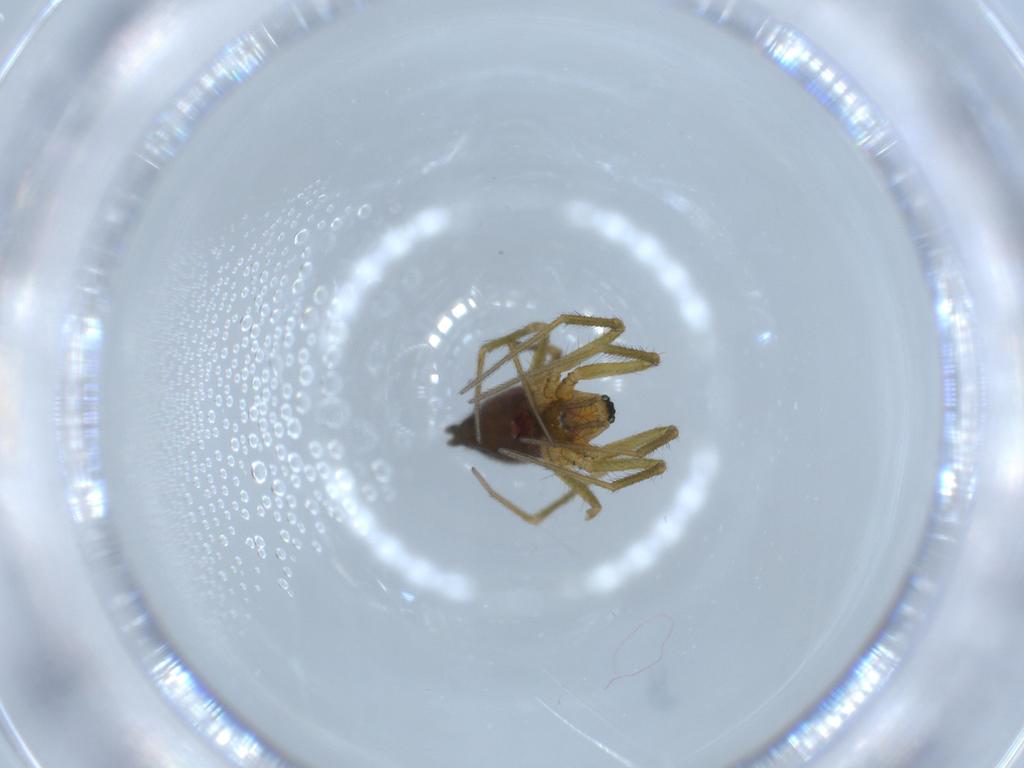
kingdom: Animalia
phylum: Arthropoda
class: Arachnida
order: Araneae
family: Linyphiidae
